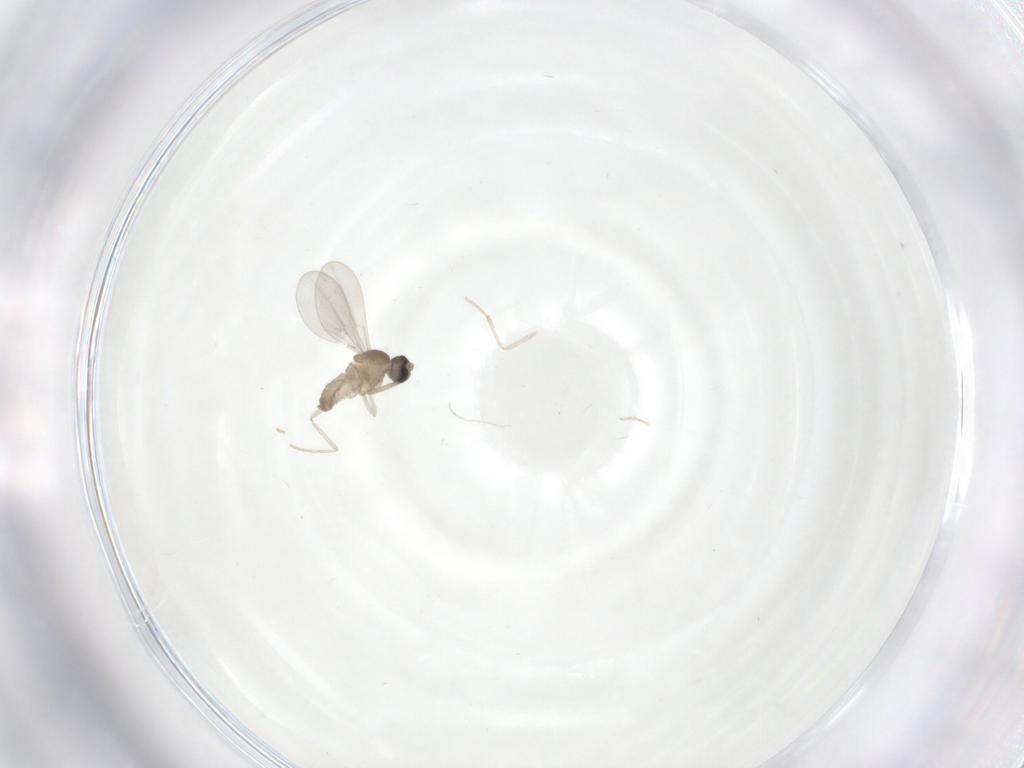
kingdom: Animalia
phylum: Arthropoda
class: Insecta
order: Diptera
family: Cecidomyiidae
